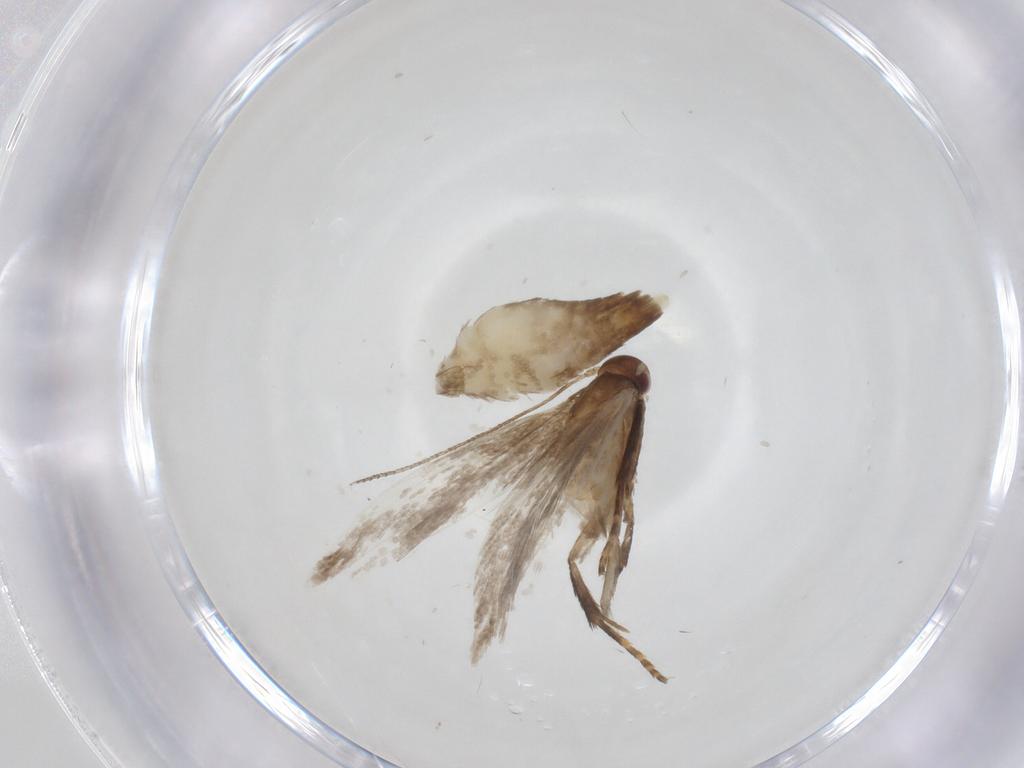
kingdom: Animalia
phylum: Arthropoda
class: Insecta
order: Lepidoptera
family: Gelechiidae
